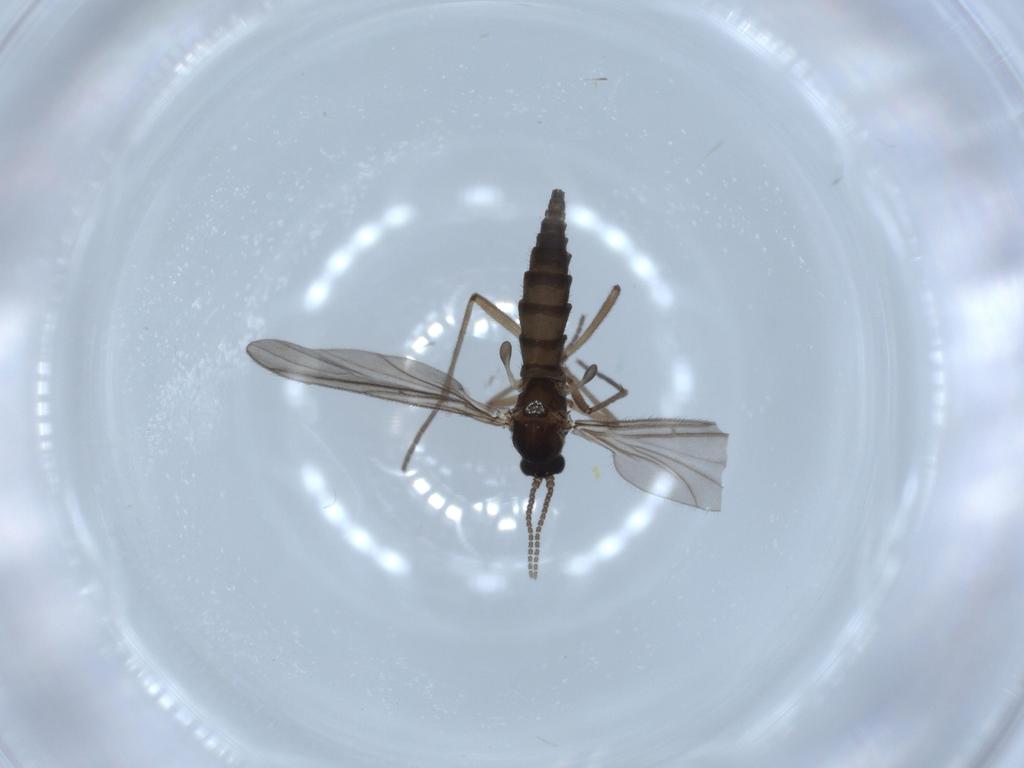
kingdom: Animalia
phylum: Arthropoda
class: Insecta
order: Diptera
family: Sciaridae
